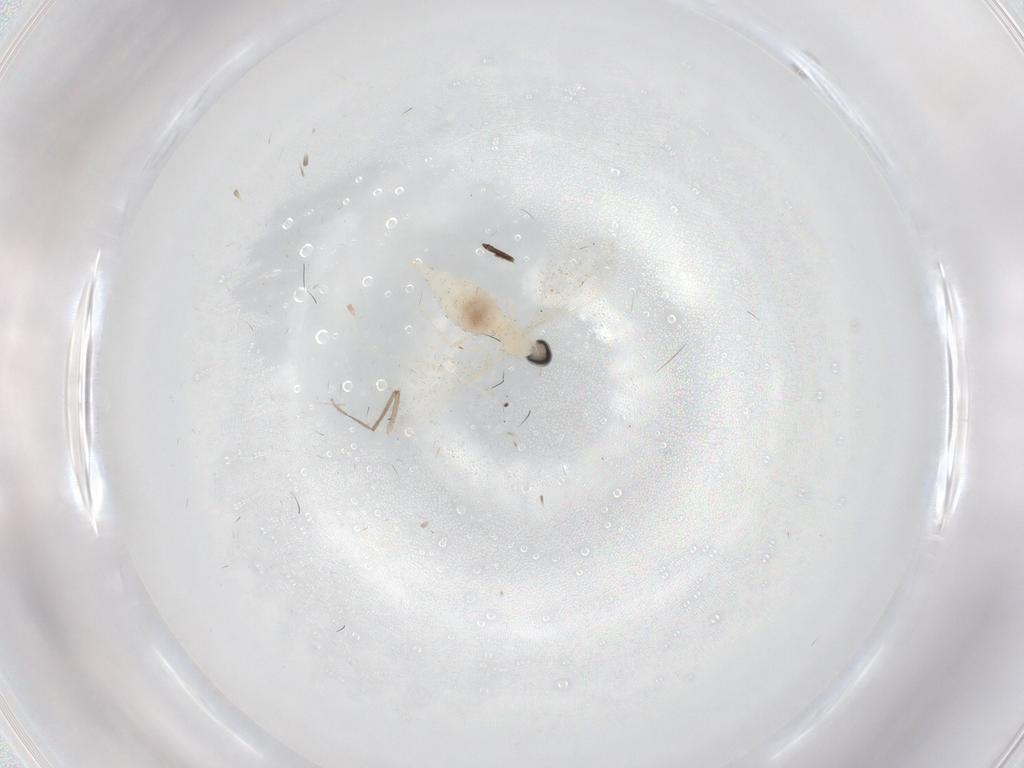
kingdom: Animalia
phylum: Arthropoda
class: Insecta
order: Diptera
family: Cecidomyiidae
